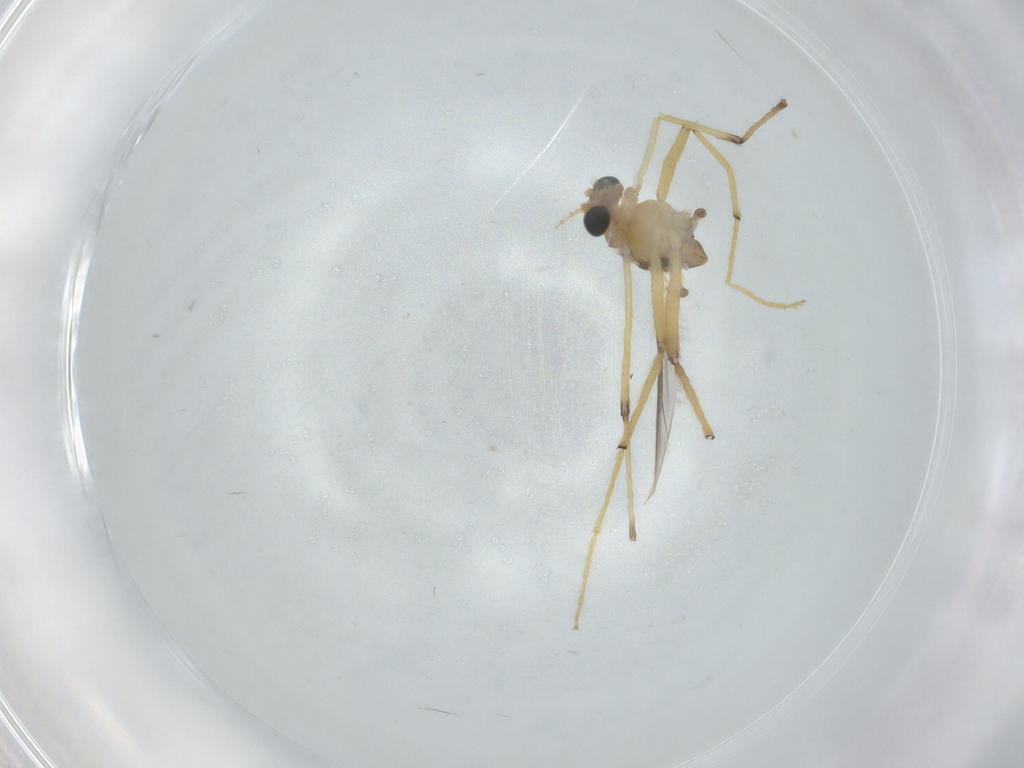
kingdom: Animalia
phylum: Arthropoda
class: Insecta
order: Diptera
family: Chironomidae
